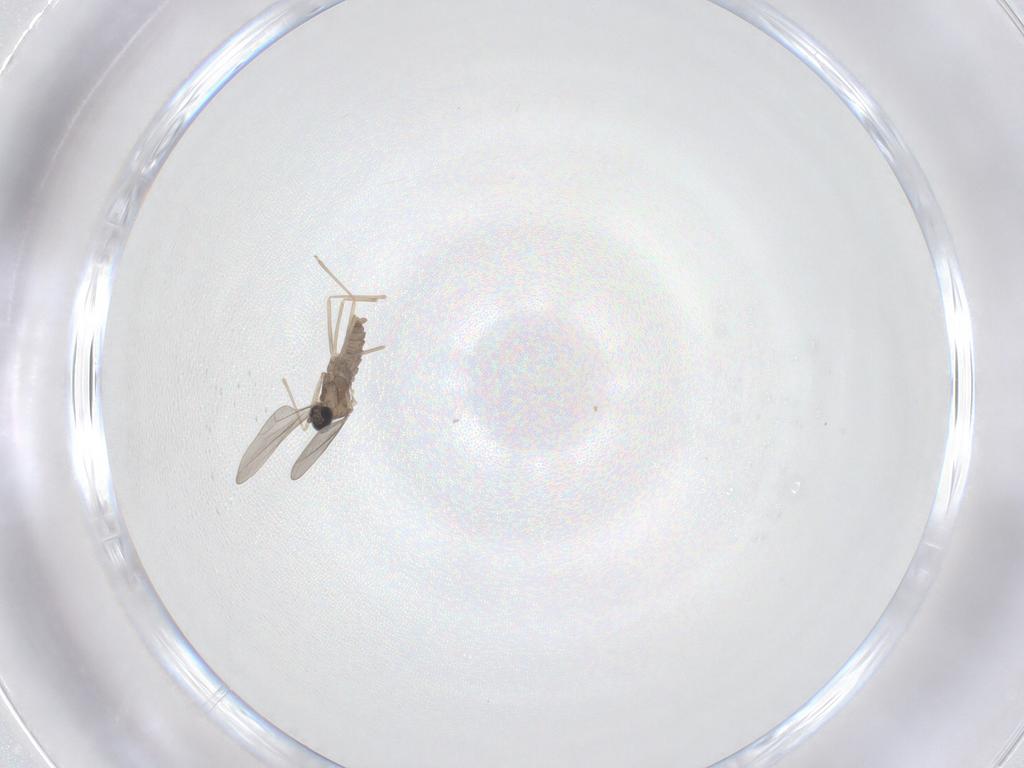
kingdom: Animalia
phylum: Arthropoda
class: Insecta
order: Diptera
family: Cecidomyiidae
